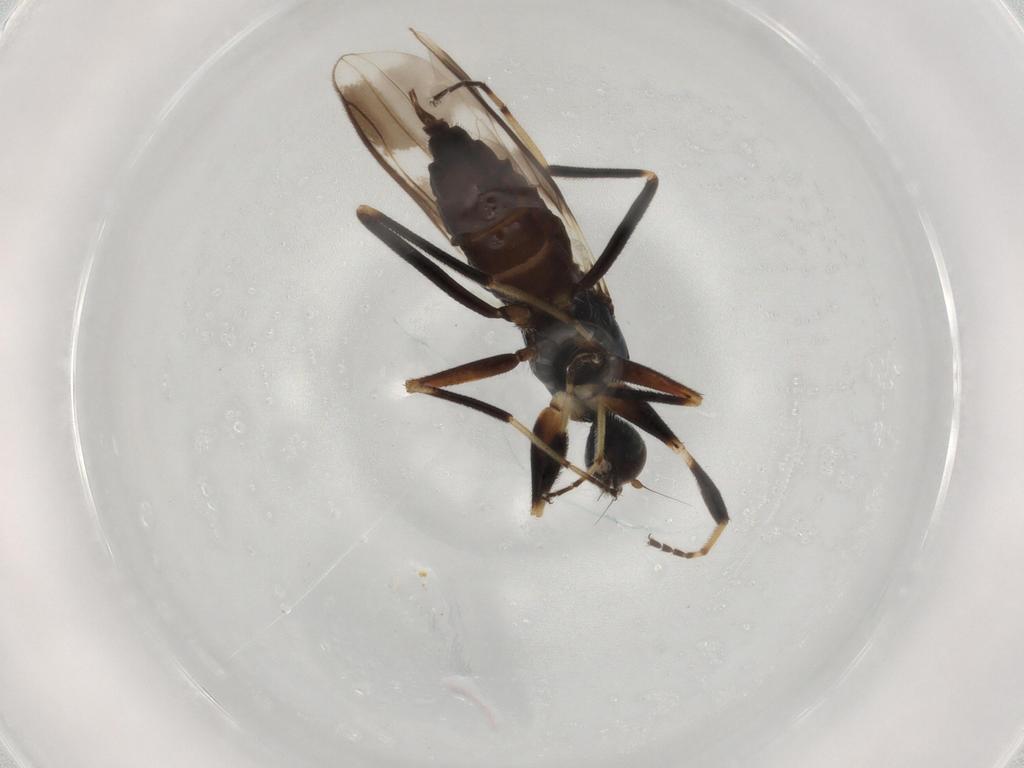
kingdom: Animalia
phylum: Arthropoda
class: Insecta
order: Diptera
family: Hybotidae
